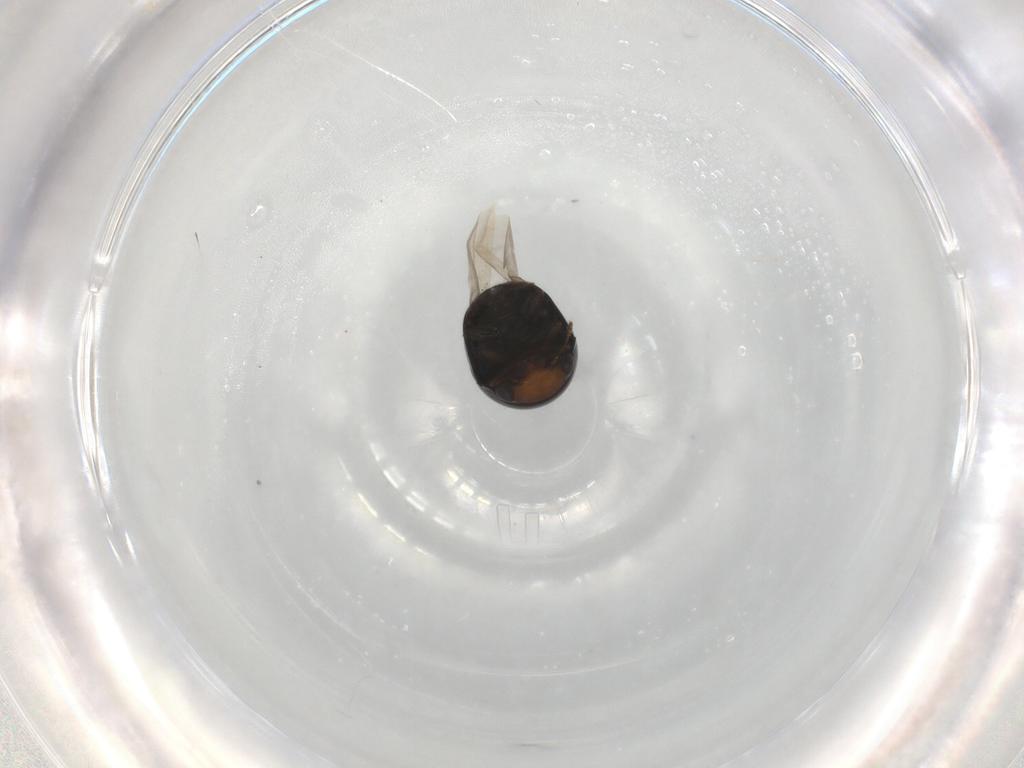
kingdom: Animalia
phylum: Arthropoda
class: Insecta
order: Coleoptera
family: Cybocephalidae
